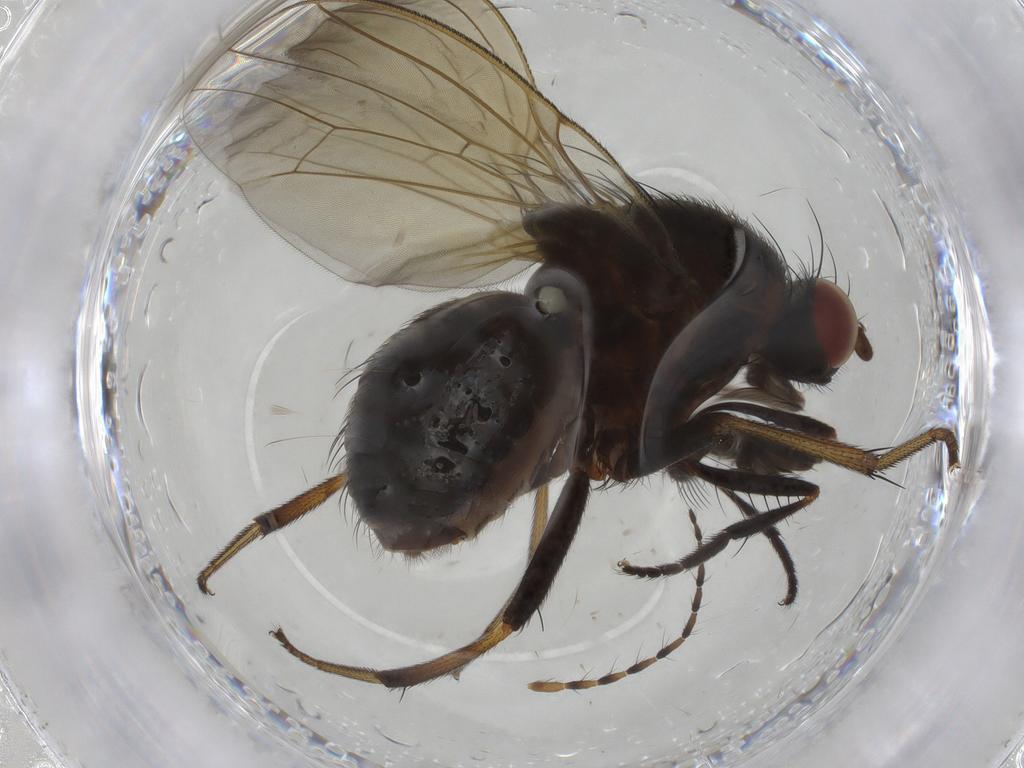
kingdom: Animalia
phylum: Arthropoda
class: Insecta
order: Diptera
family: Lauxaniidae
